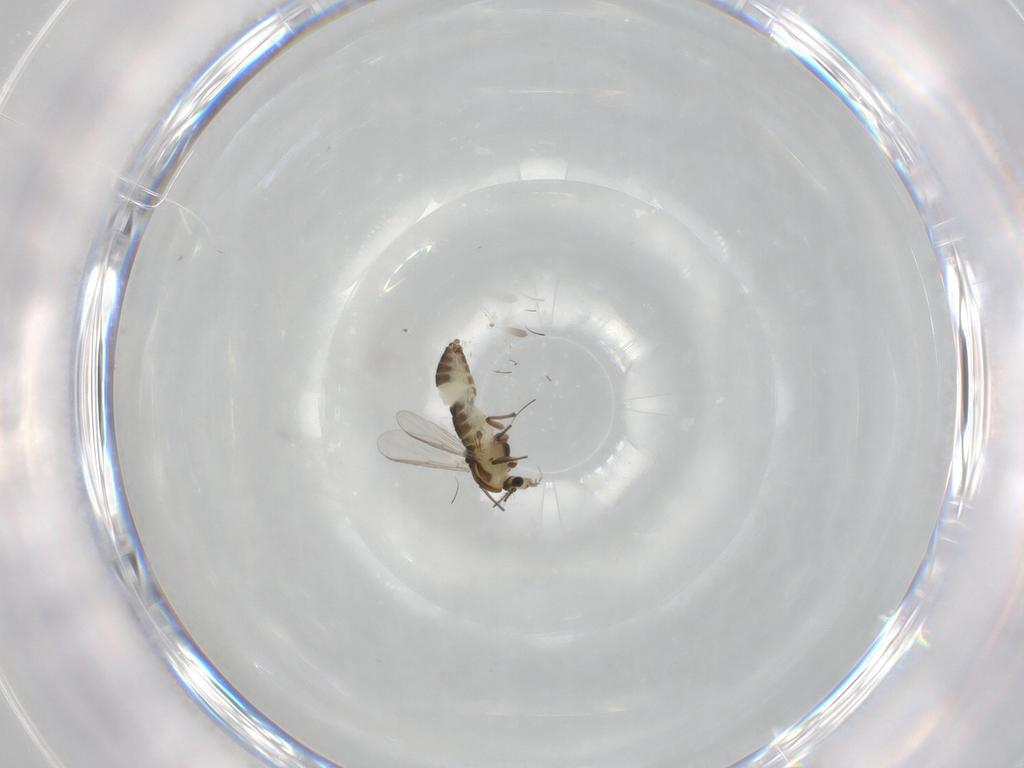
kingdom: Animalia
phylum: Arthropoda
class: Insecta
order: Diptera
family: Chironomidae
